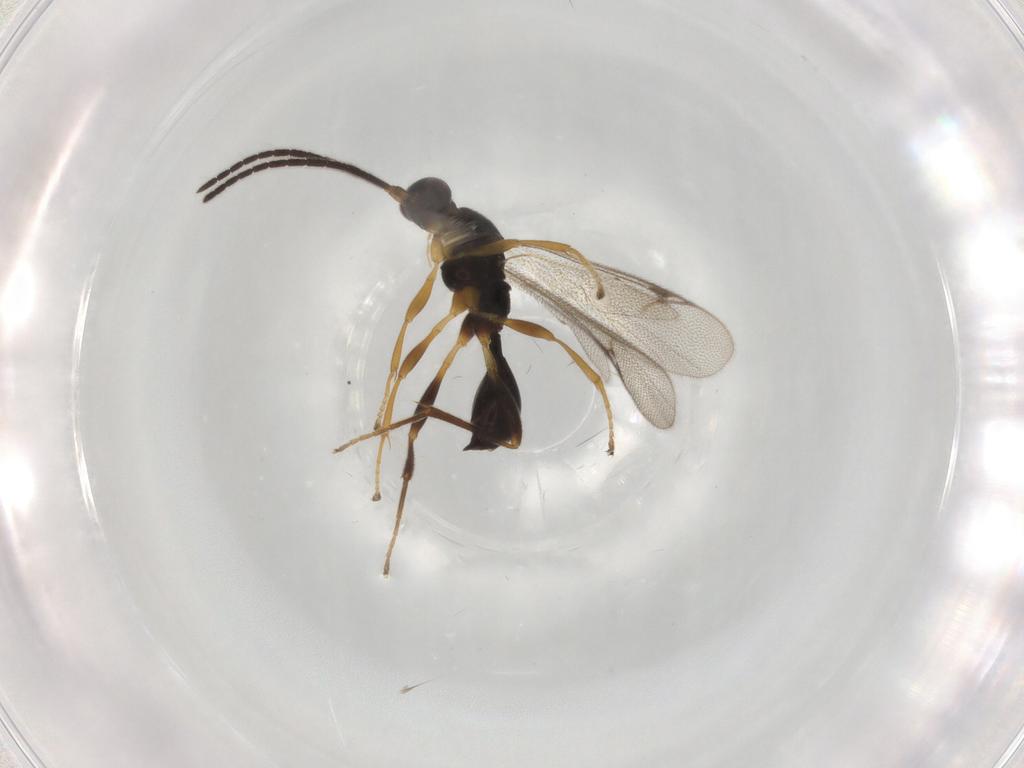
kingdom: Animalia
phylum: Arthropoda
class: Insecta
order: Hymenoptera
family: Proctotrupidae
